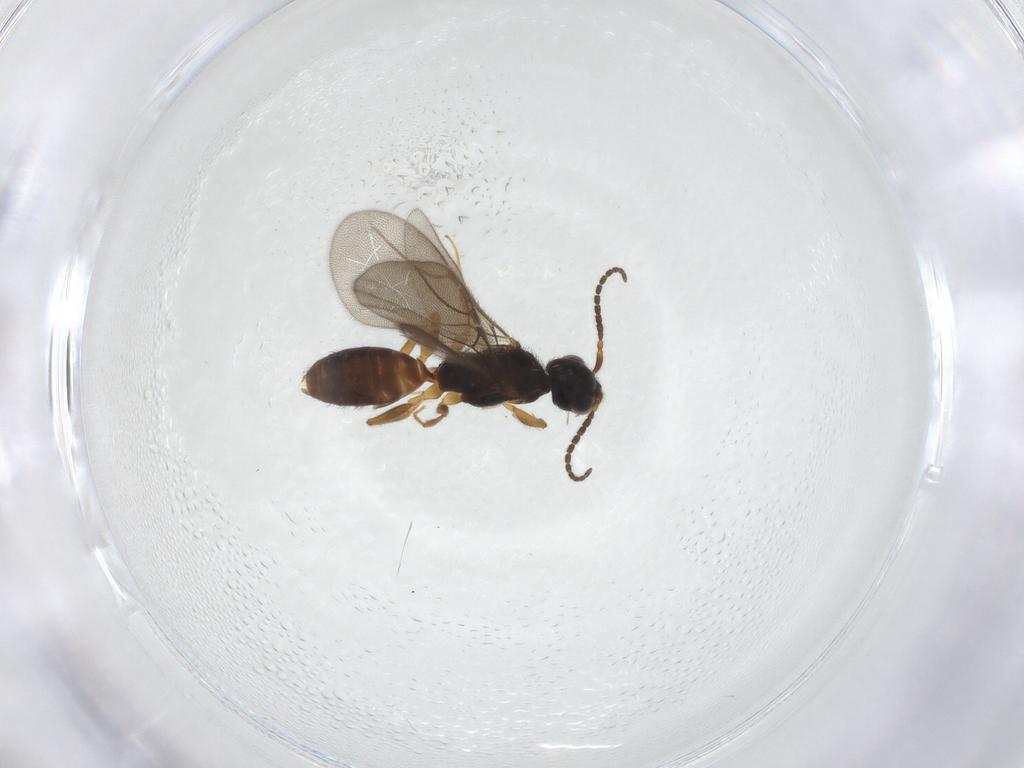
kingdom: Animalia
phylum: Arthropoda
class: Insecta
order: Hymenoptera
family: Bethylidae
